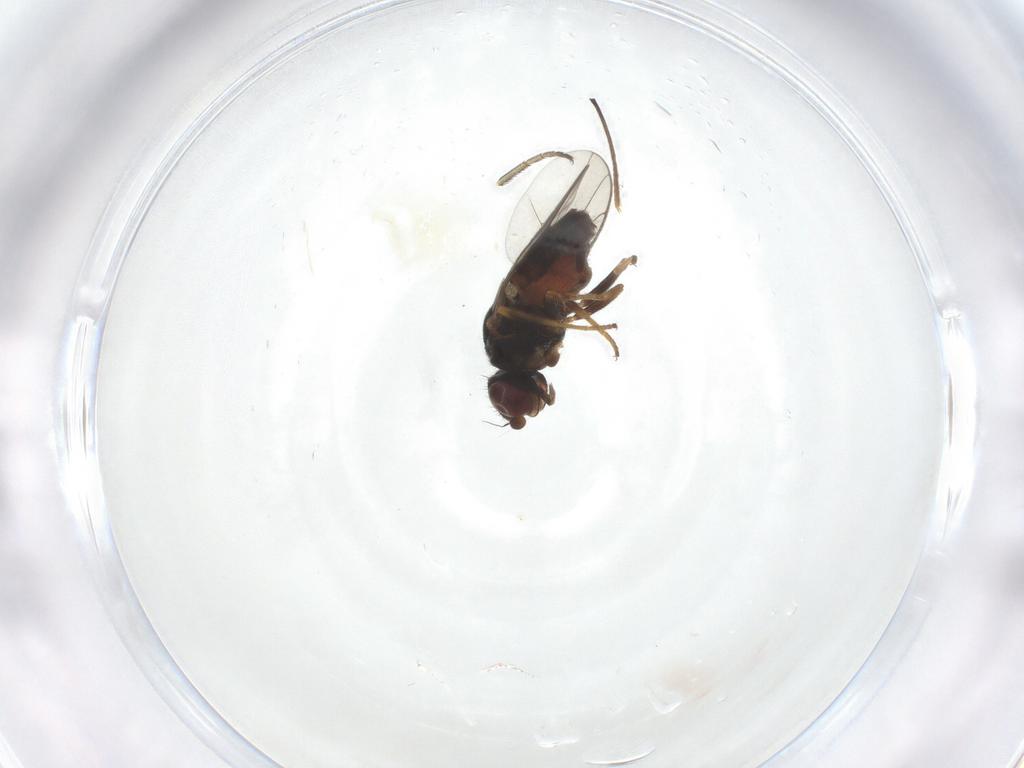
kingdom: Animalia
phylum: Arthropoda
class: Insecta
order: Diptera
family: Chloropidae
